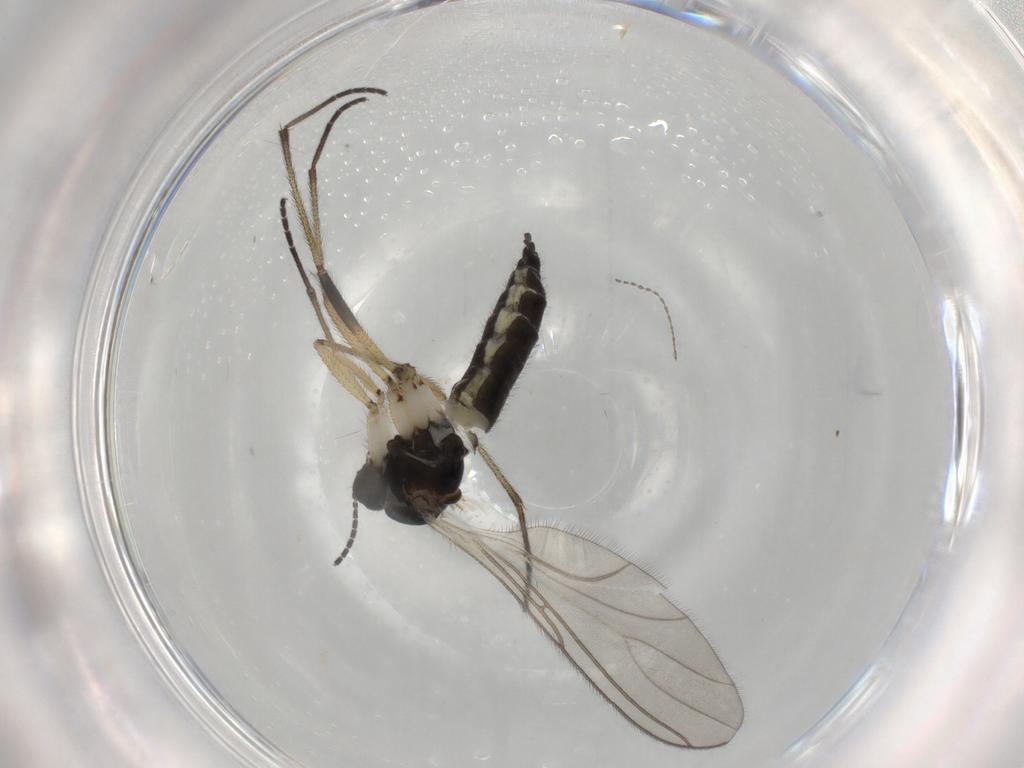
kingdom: Animalia
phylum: Arthropoda
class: Insecta
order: Diptera
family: Sciaridae
